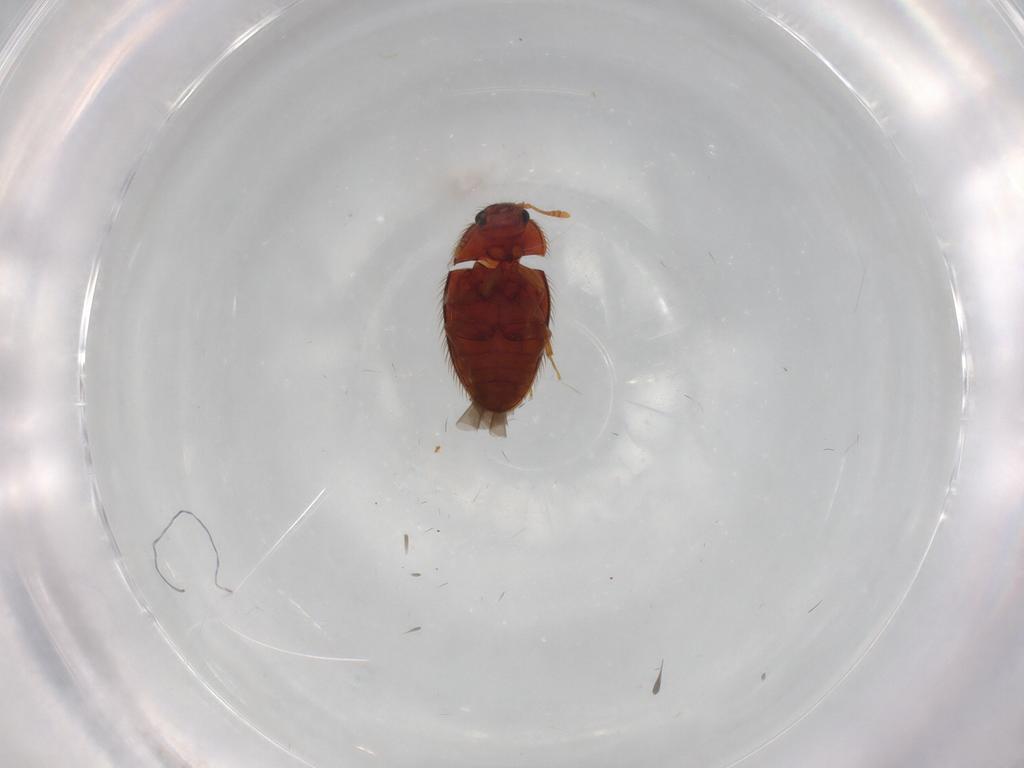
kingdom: Animalia
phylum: Arthropoda
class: Insecta
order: Coleoptera
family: Biphyllidae
